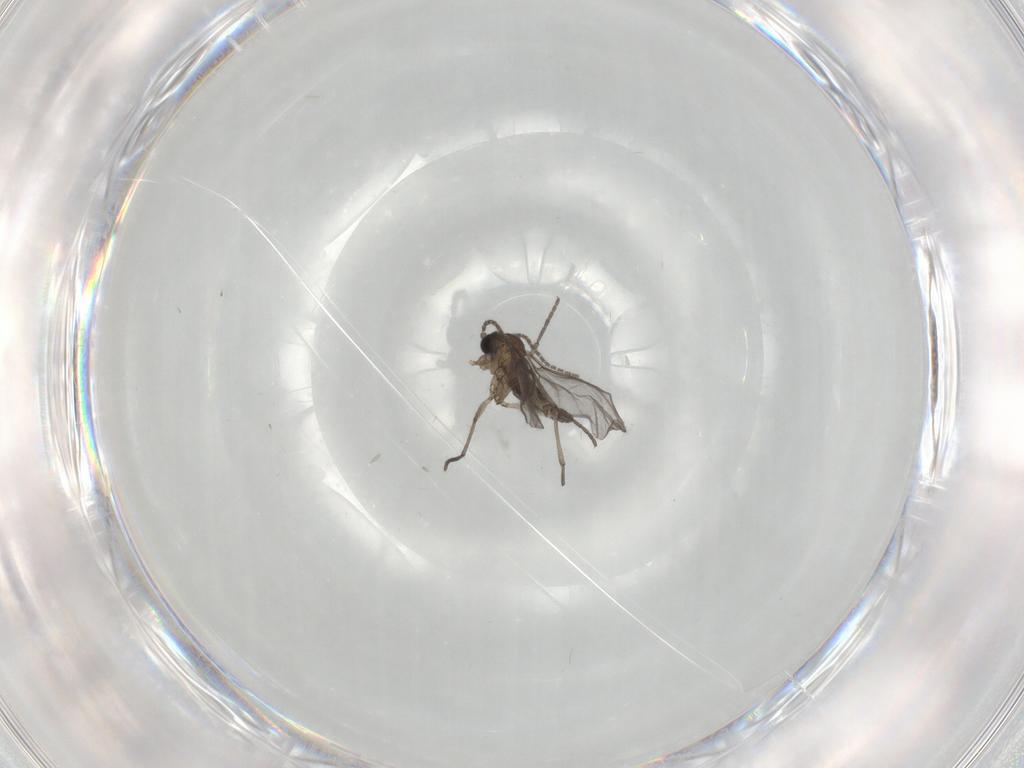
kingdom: Animalia
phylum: Arthropoda
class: Insecta
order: Diptera
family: Sciaridae
